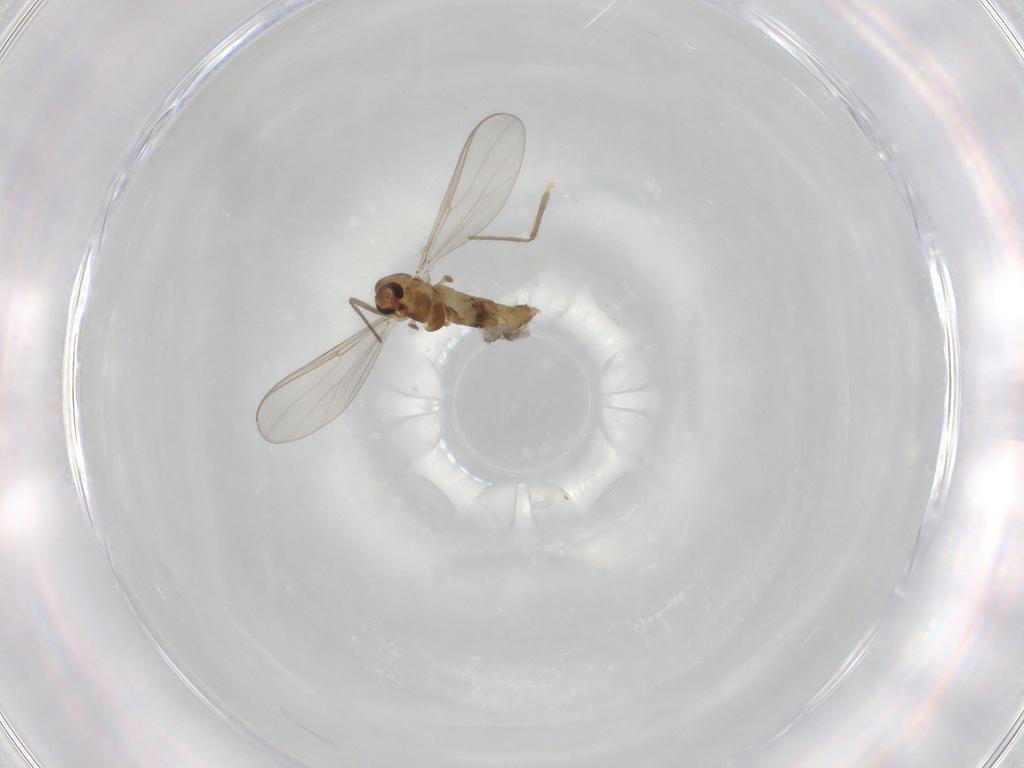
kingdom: Animalia
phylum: Arthropoda
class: Insecta
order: Diptera
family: Chironomidae
